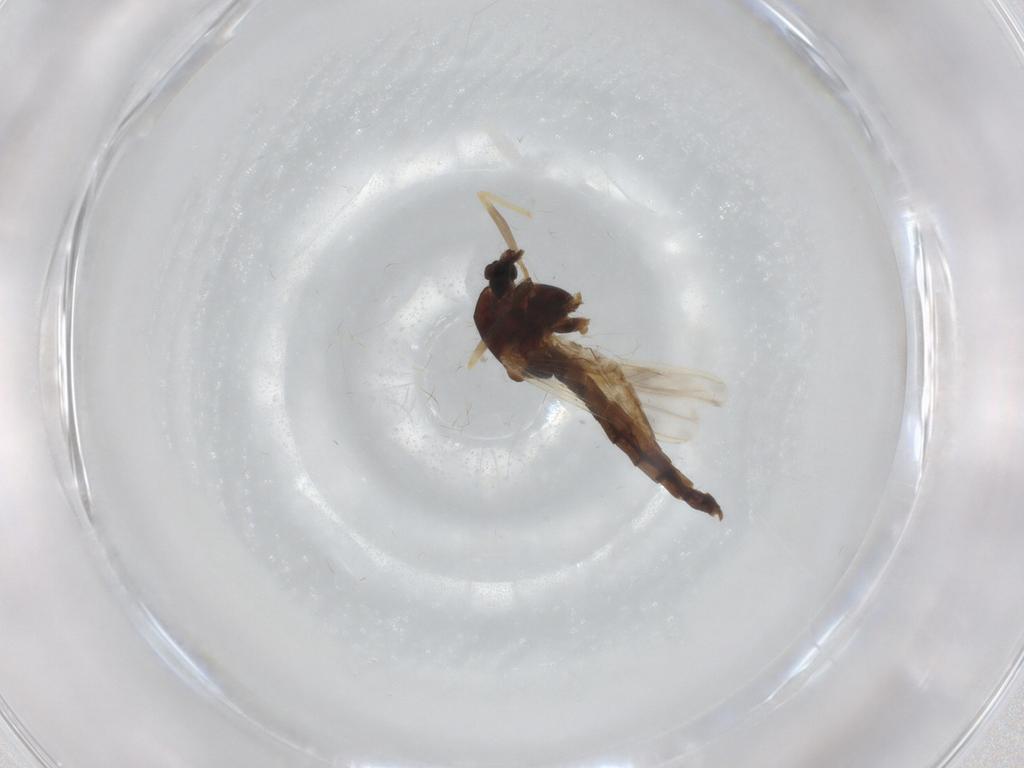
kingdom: Animalia
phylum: Arthropoda
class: Insecta
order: Diptera
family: Chironomidae
